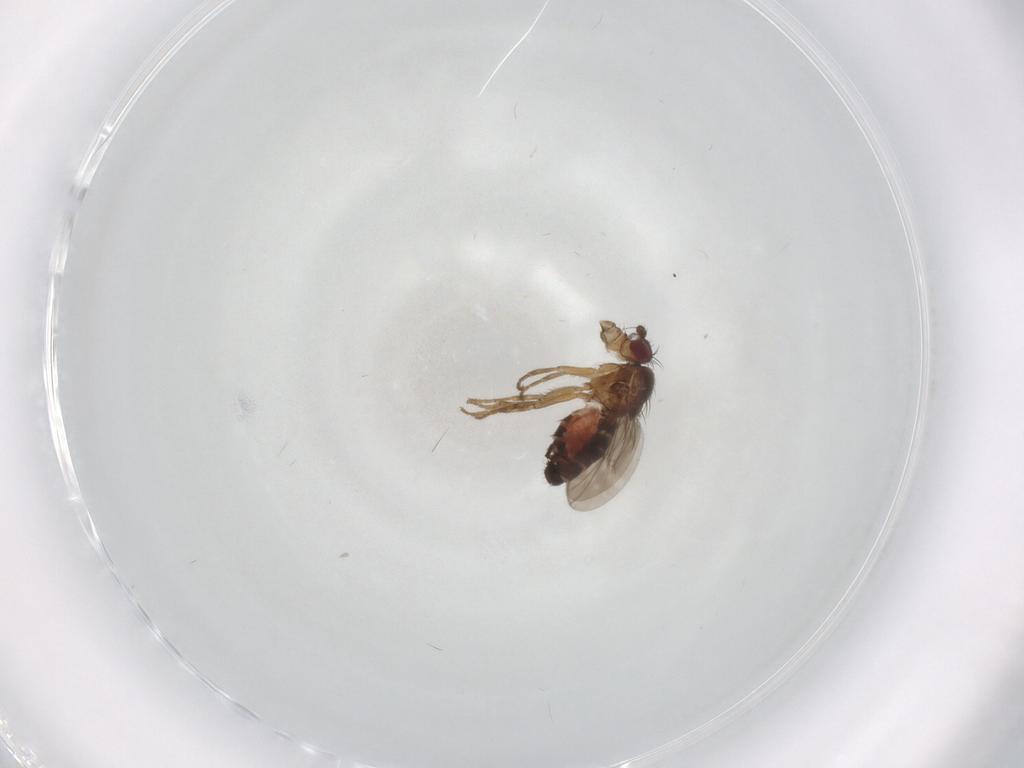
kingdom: Animalia
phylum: Arthropoda
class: Insecta
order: Diptera
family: Sphaeroceridae
